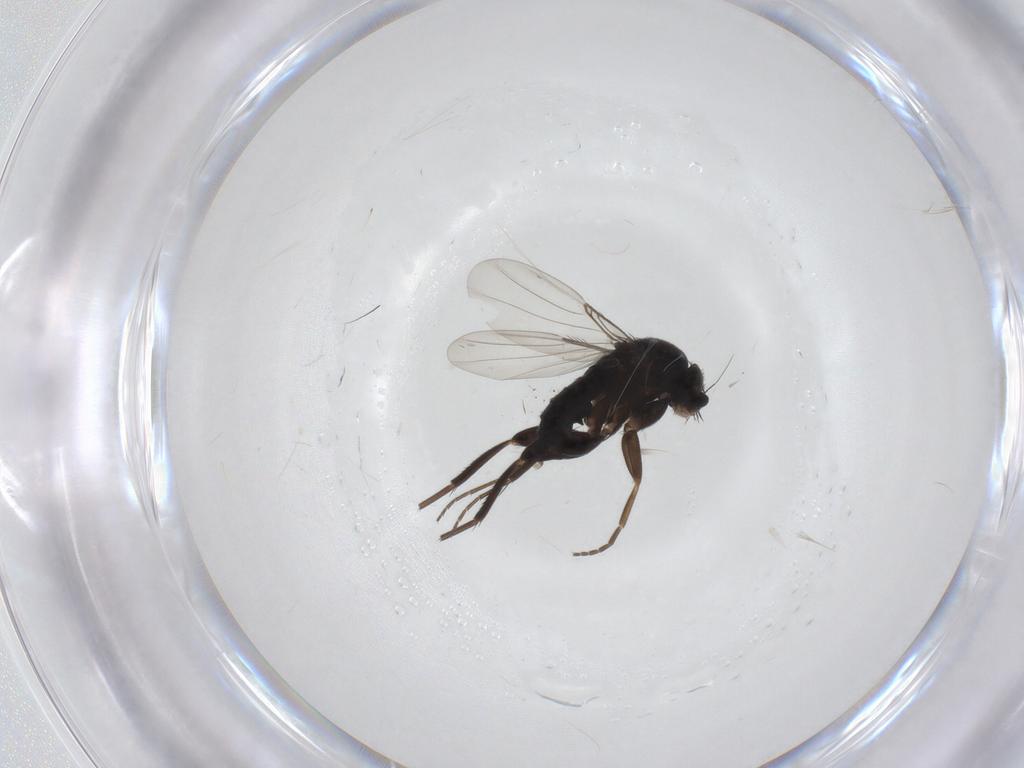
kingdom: Animalia
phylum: Arthropoda
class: Insecta
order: Diptera
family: Phoridae
